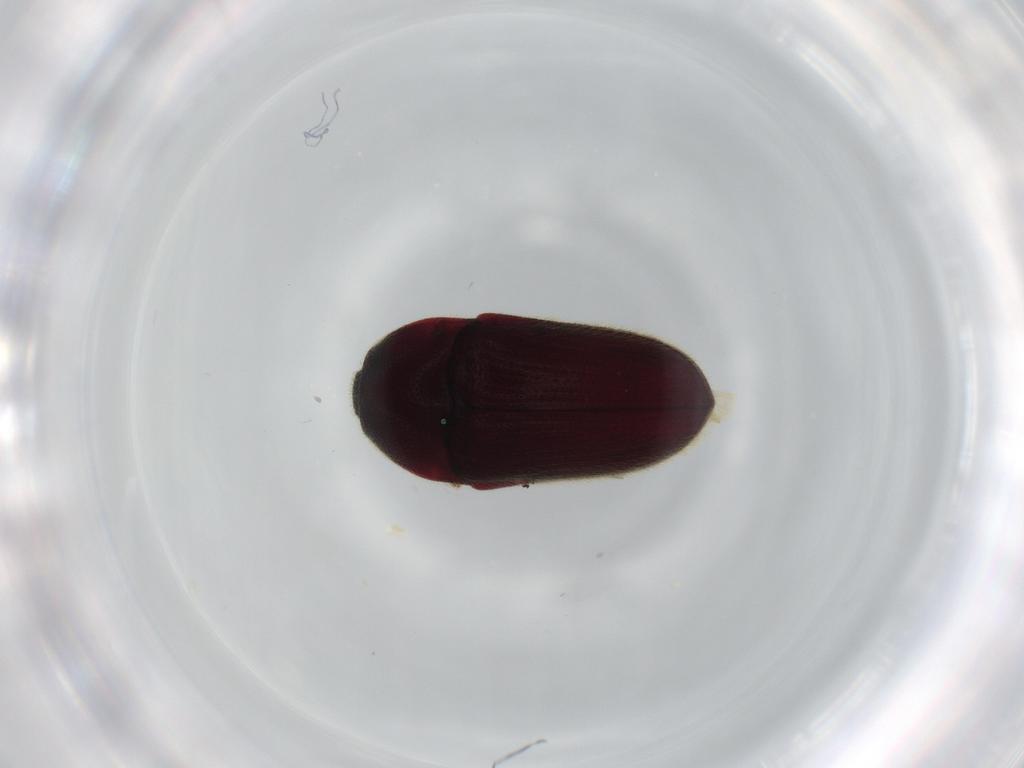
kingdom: Animalia
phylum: Arthropoda
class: Insecta
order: Coleoptera
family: Throscidae
